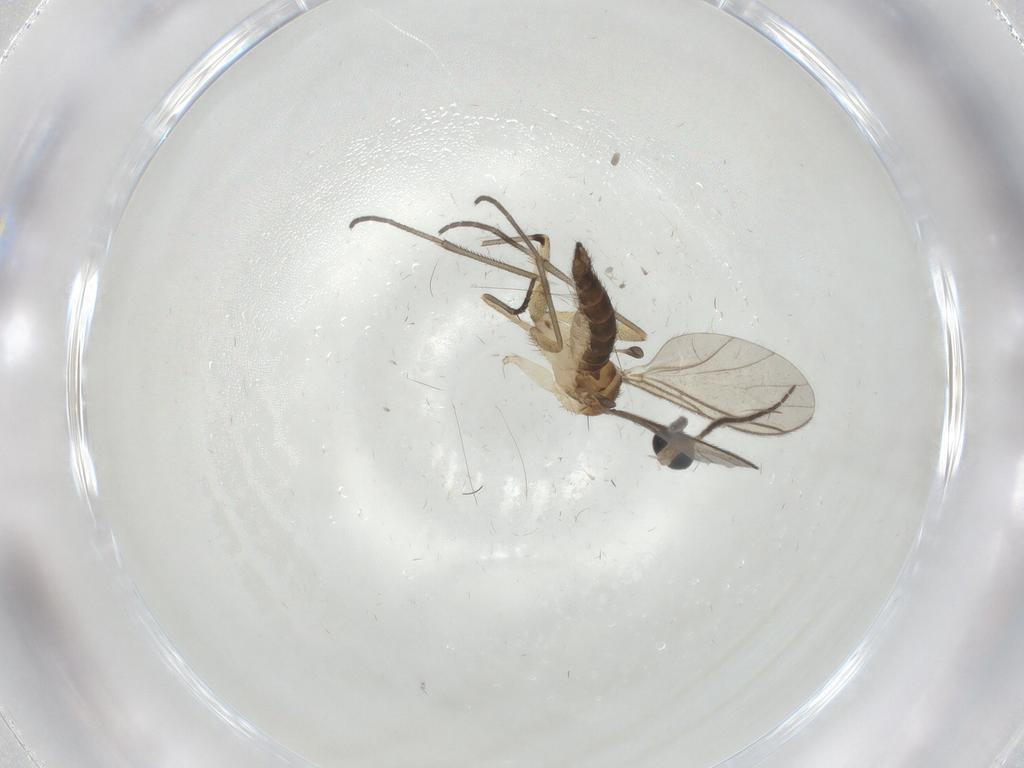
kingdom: Animalia
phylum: Arthropoda
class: Insecta
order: Diptera
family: Sciaridae
